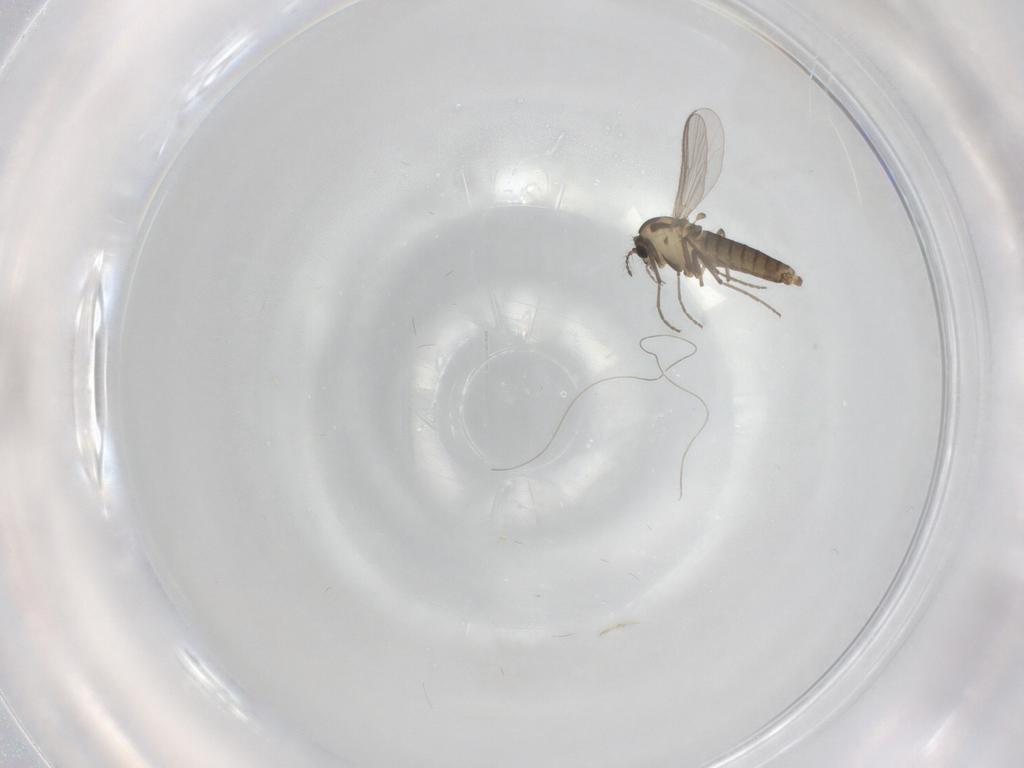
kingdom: Animalia
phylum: Arthropoda
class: Insecta
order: Diptera
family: Chironomidae
